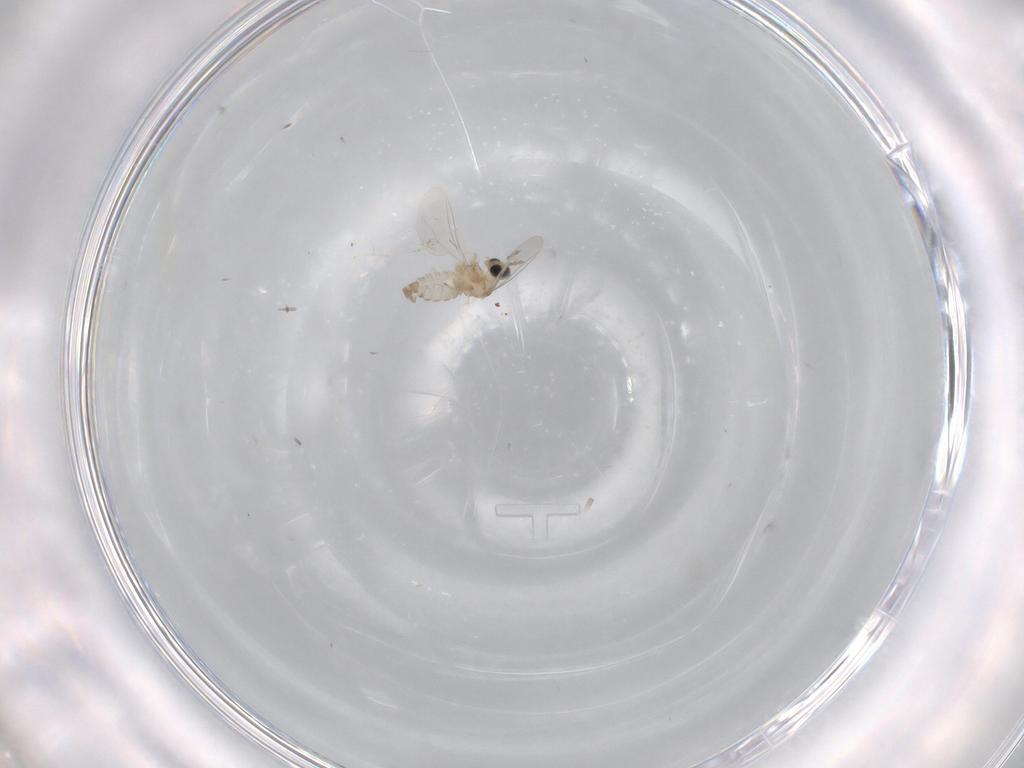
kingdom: Animalia
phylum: Arthropoda
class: Insecta
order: Diptera
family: Cecidomyiidae
